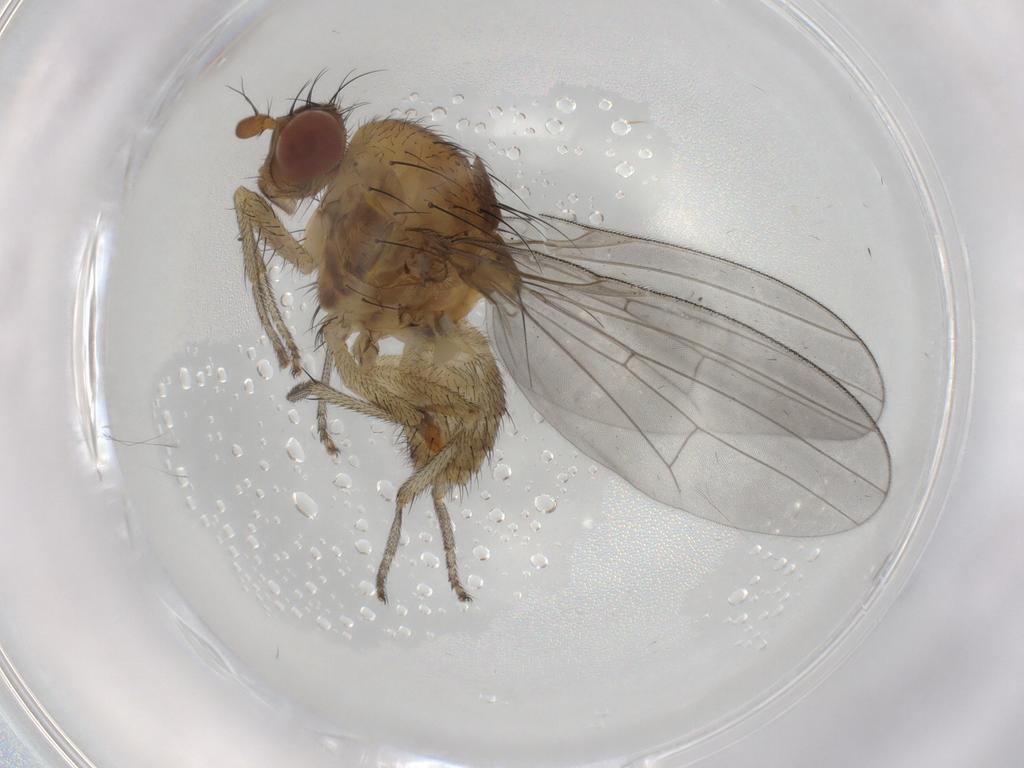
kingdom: Animalia
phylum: Arthropoda
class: Insecta
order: Diptera
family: Lauxaniidae
